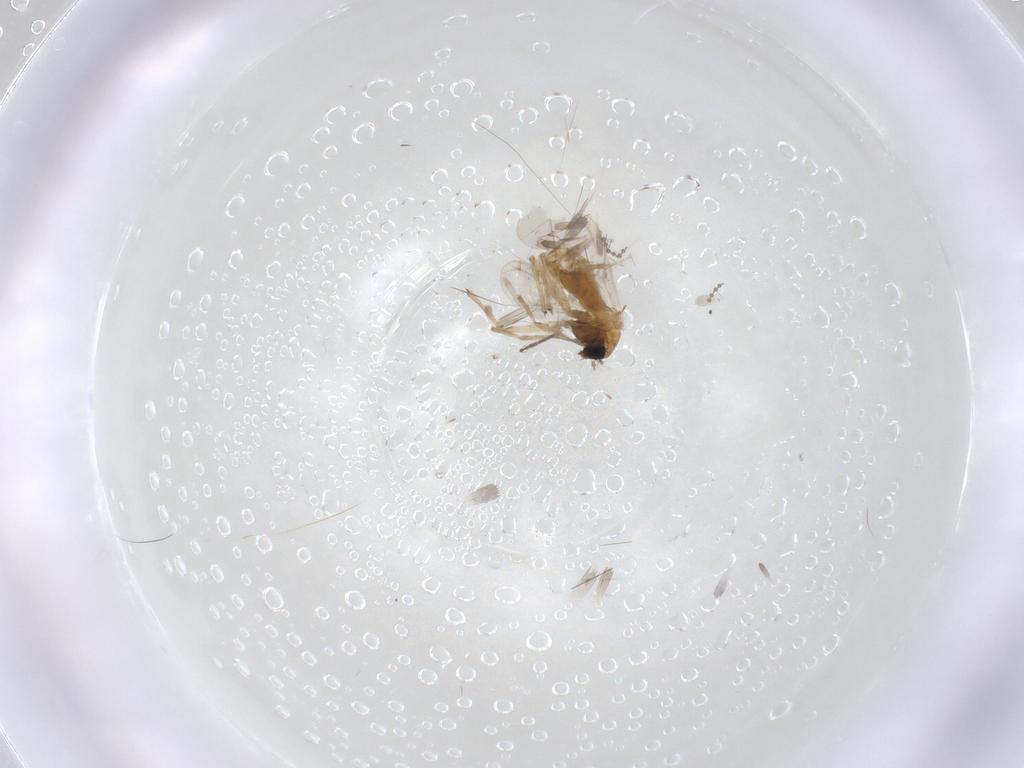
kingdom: Animalia
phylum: Arthropoda
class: Insecta
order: Diptera
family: Chironomidae
